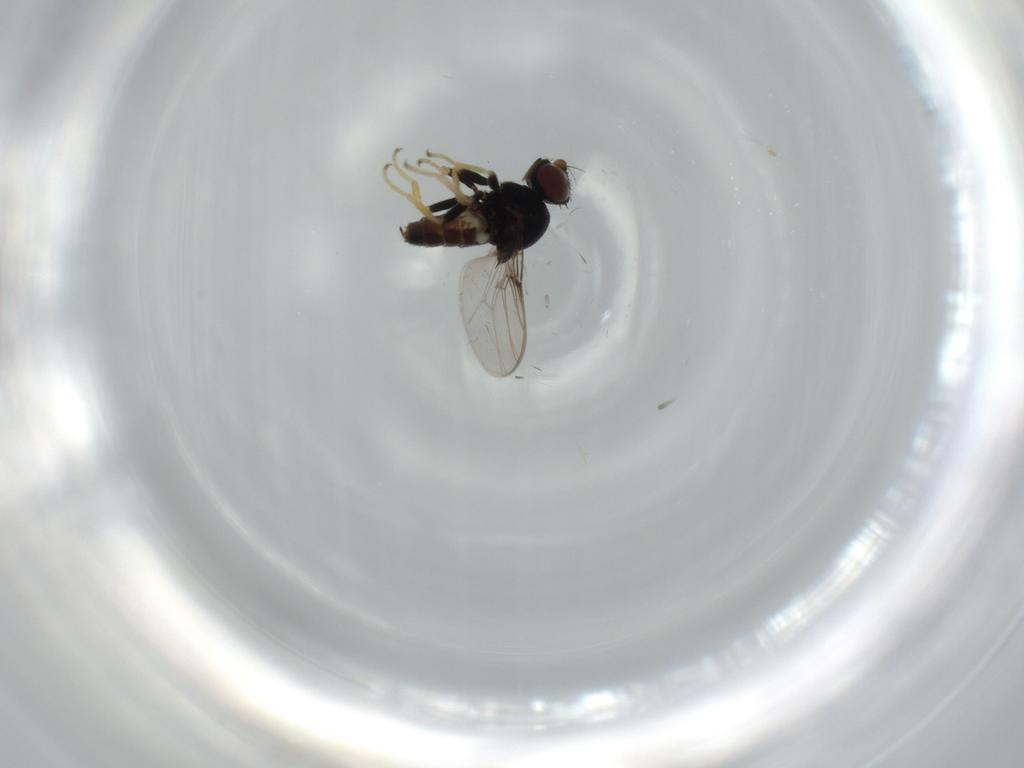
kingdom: Animalia
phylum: Arthropoda
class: Insecta
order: Diptera
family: Chloropidae
